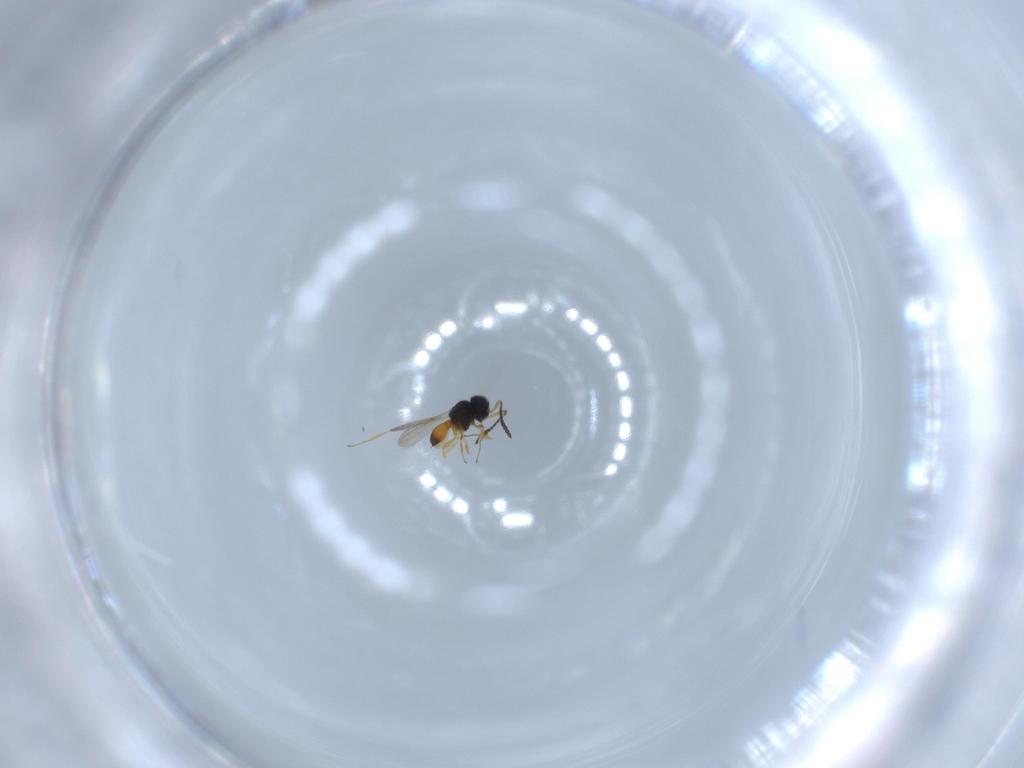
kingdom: Animalia
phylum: Arthropoda
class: Insecta
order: Hymenoptera
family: Scelionidae
